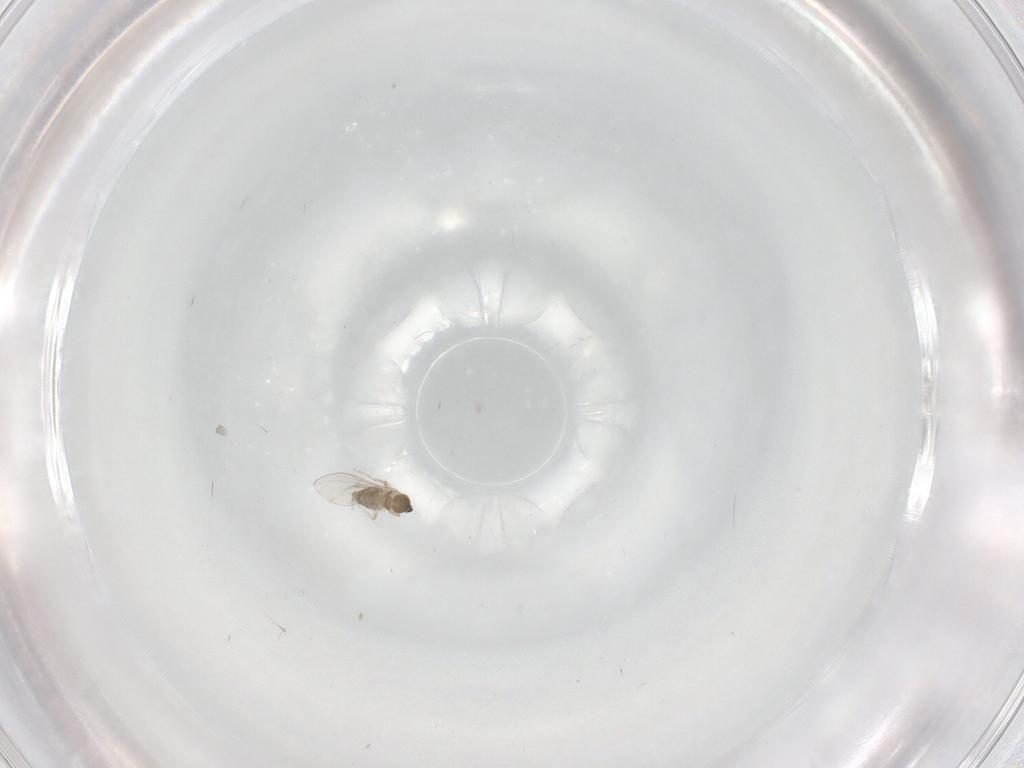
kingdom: Animalia
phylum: Arthropoda
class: Insecta
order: Diptera
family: Cecidomyiidae
